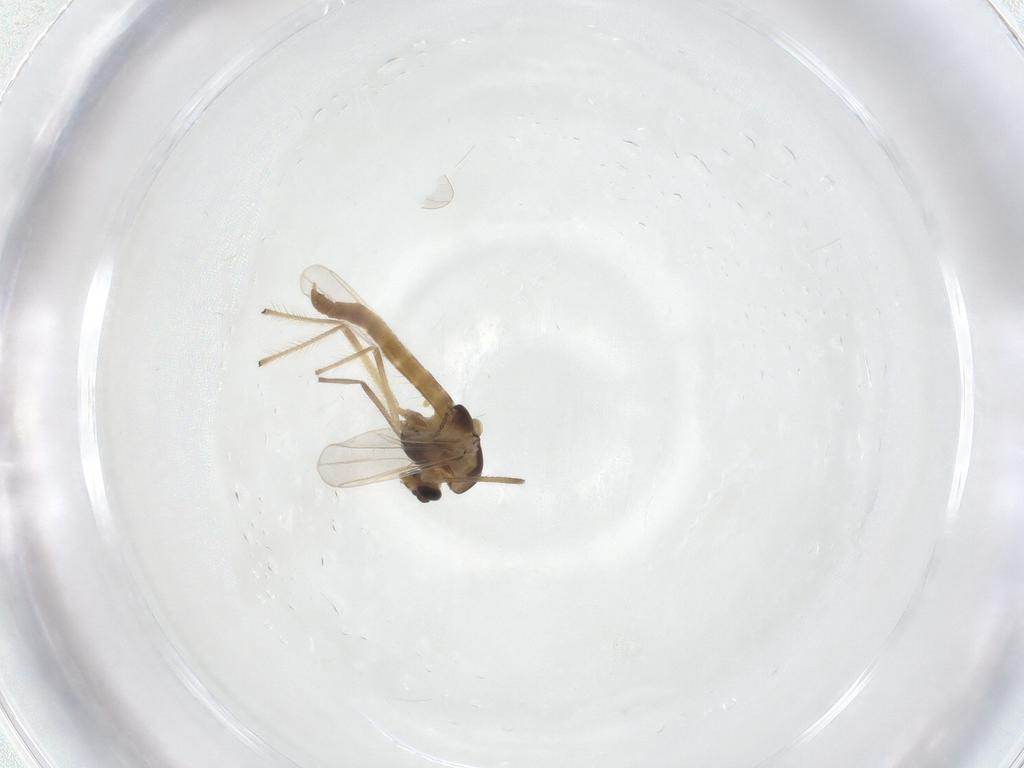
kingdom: Animalia
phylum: Arthropoda
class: Insecta
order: Diptera
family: Chironomidae
